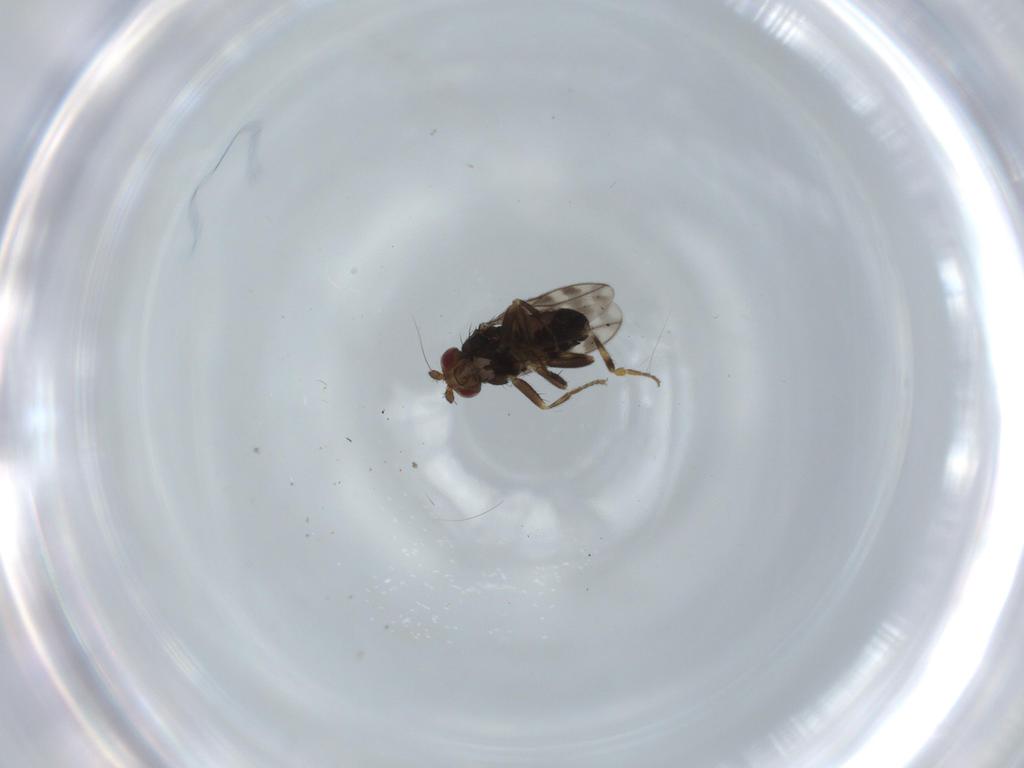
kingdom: Animalia
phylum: Arthropoda
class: Insecta
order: Diptera
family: Sphaeroceridae
